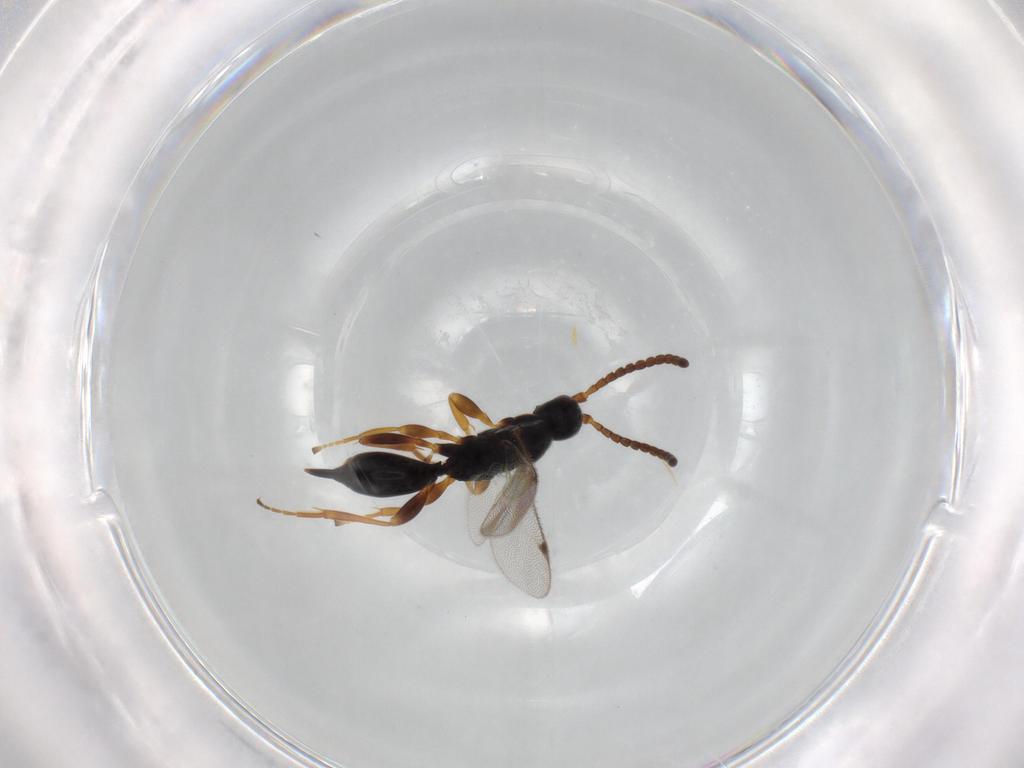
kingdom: Animalia
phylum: Arthropoda
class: Insecta
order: Hymenoptera
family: Proctotrupidae
